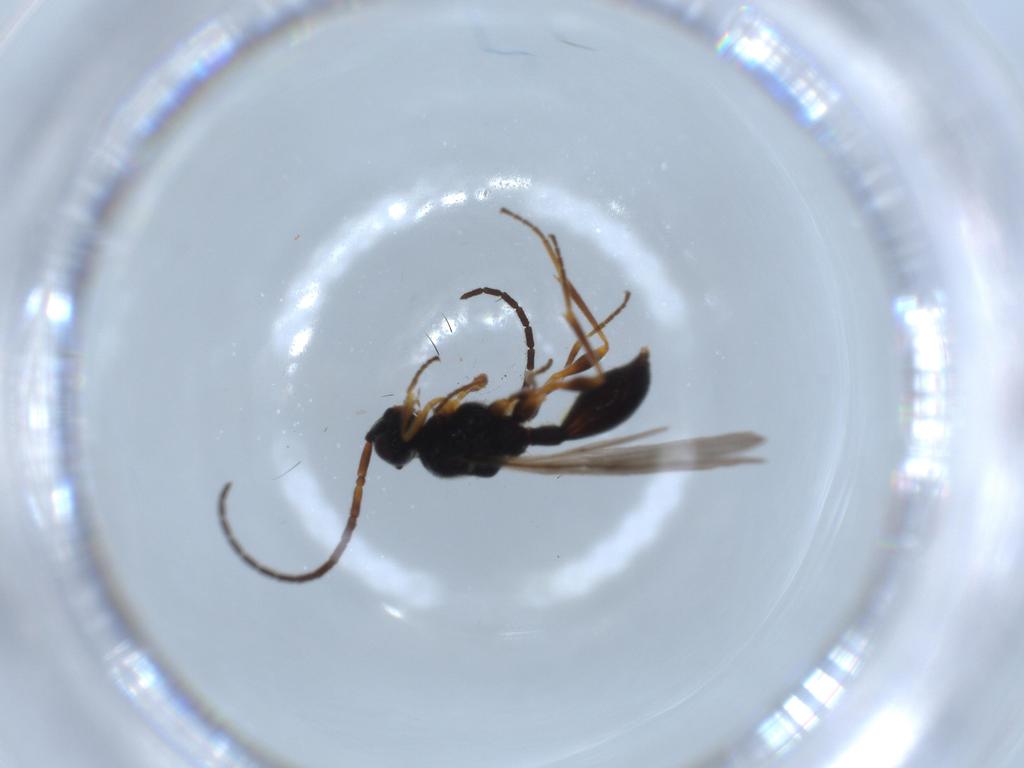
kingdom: Animalia
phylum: Arthropoda
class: Insecta
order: Hymenoptera
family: Diapriidae
